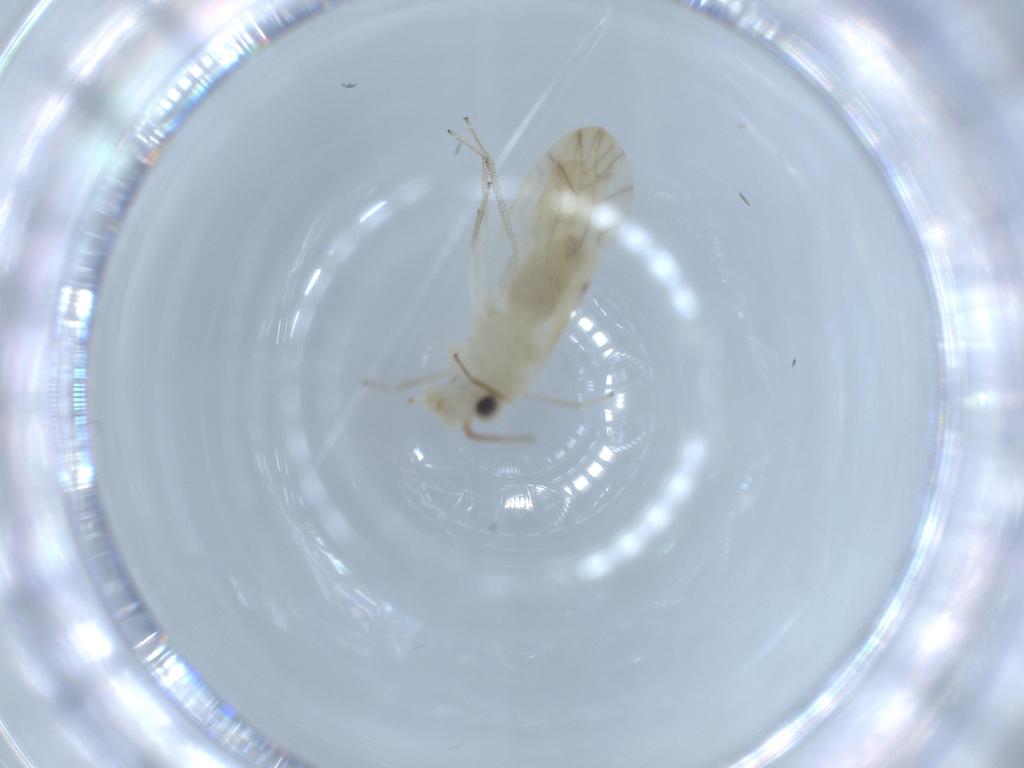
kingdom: Animalia
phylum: Arthropoda
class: Insecta
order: Psocodea
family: Caeciliusidae
